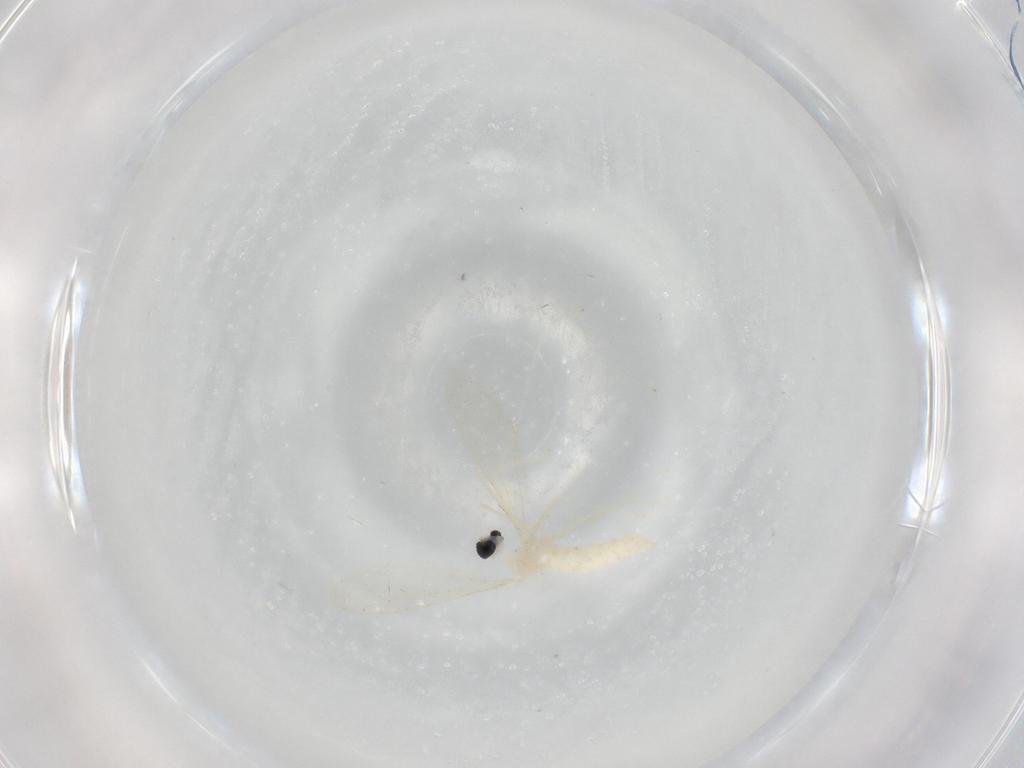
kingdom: Animalia
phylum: Arthropoda
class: Insecta
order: Diptera
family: Cecidomyiidae
